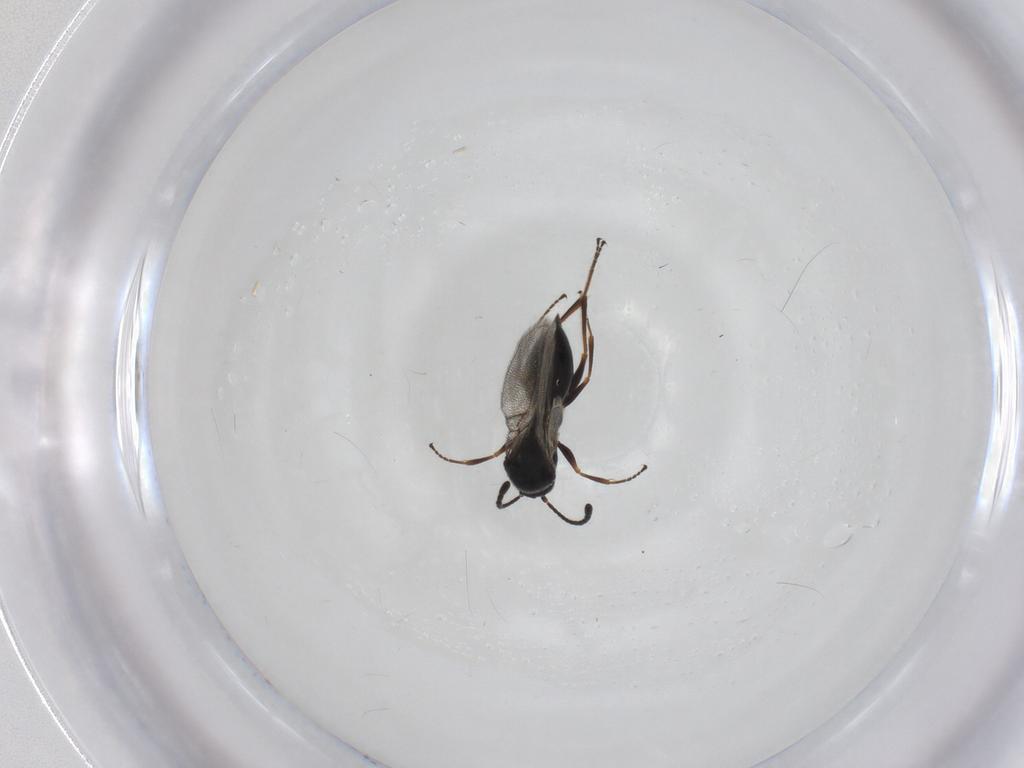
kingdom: Animalia
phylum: Arthropoda
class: Insecta
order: Hymenoptera
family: Figitidae
